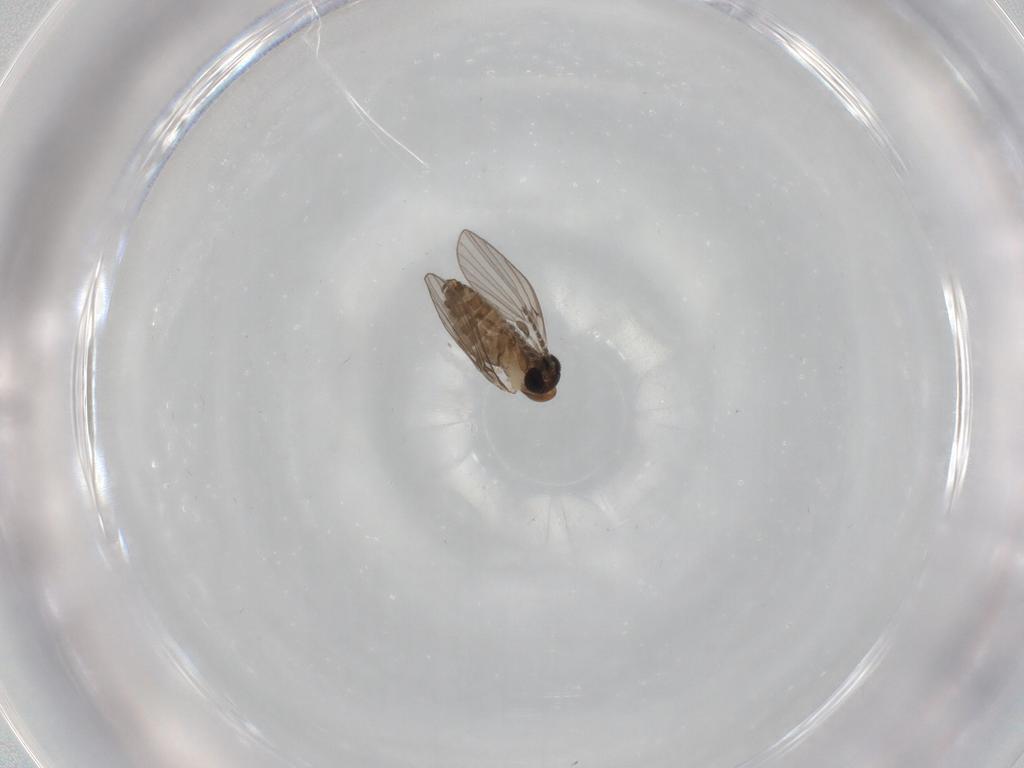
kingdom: Animalia
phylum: Arthropoda
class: Insecta
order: Diptera
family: Psychodidae
